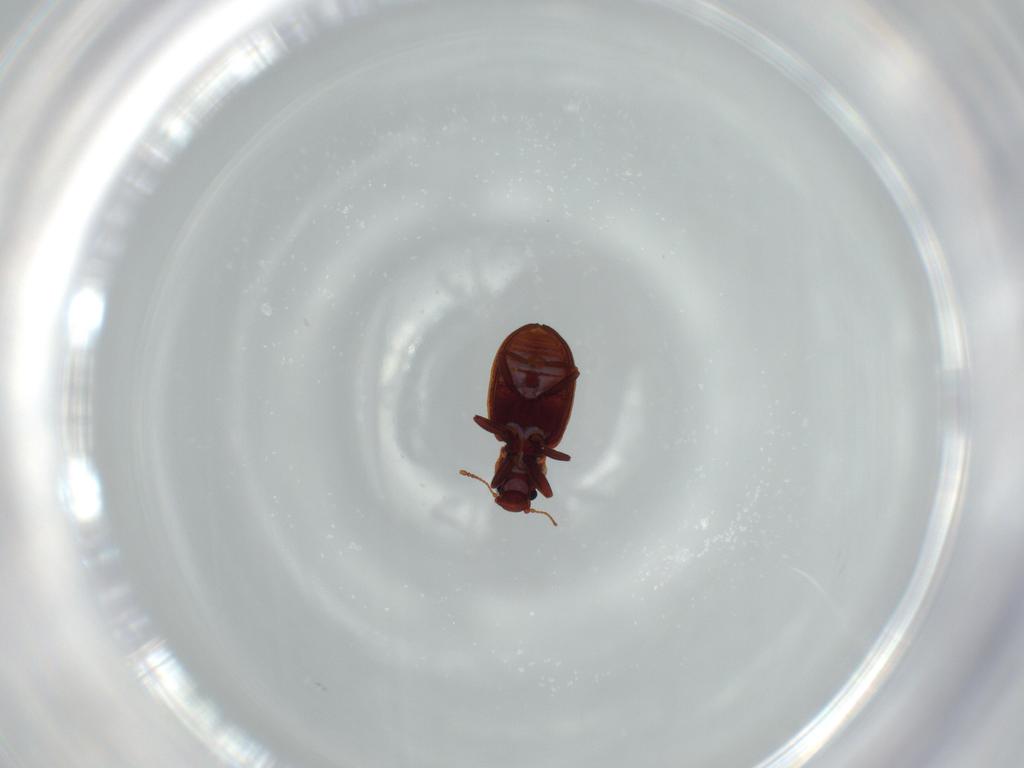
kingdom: Animalia
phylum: Arthropoda
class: Insecta
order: Coleoptera
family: Latridiidae
